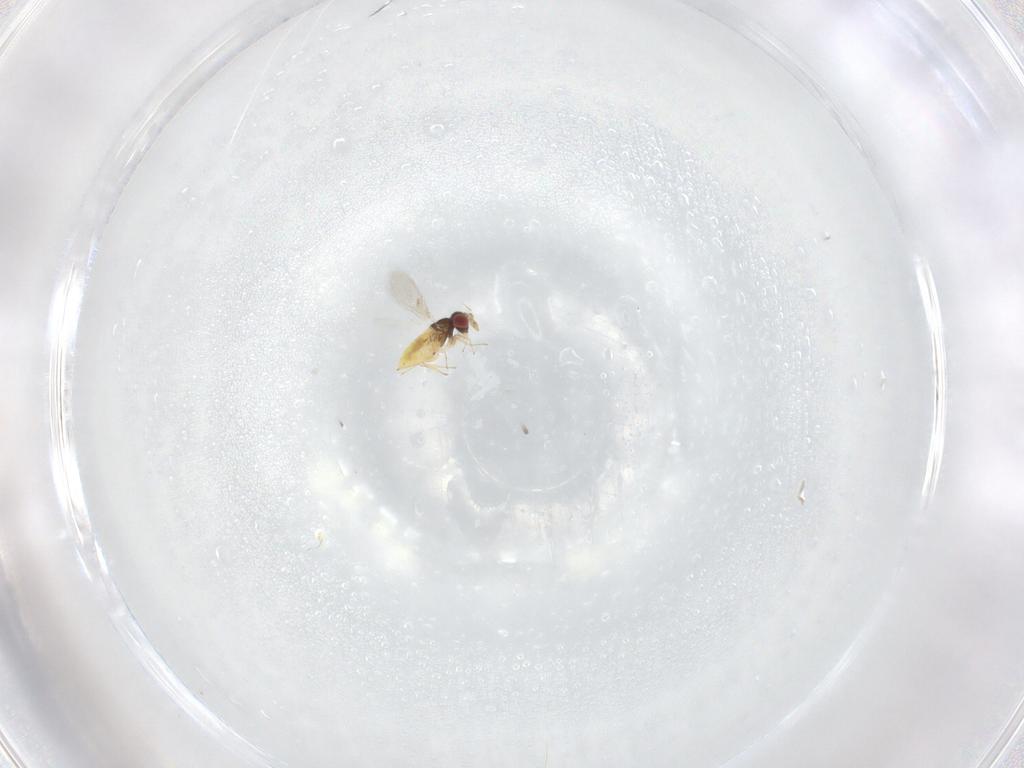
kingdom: Animalia
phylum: Arthropoda
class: Insecta
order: Hymenoptera
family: Trichogrammatidae
